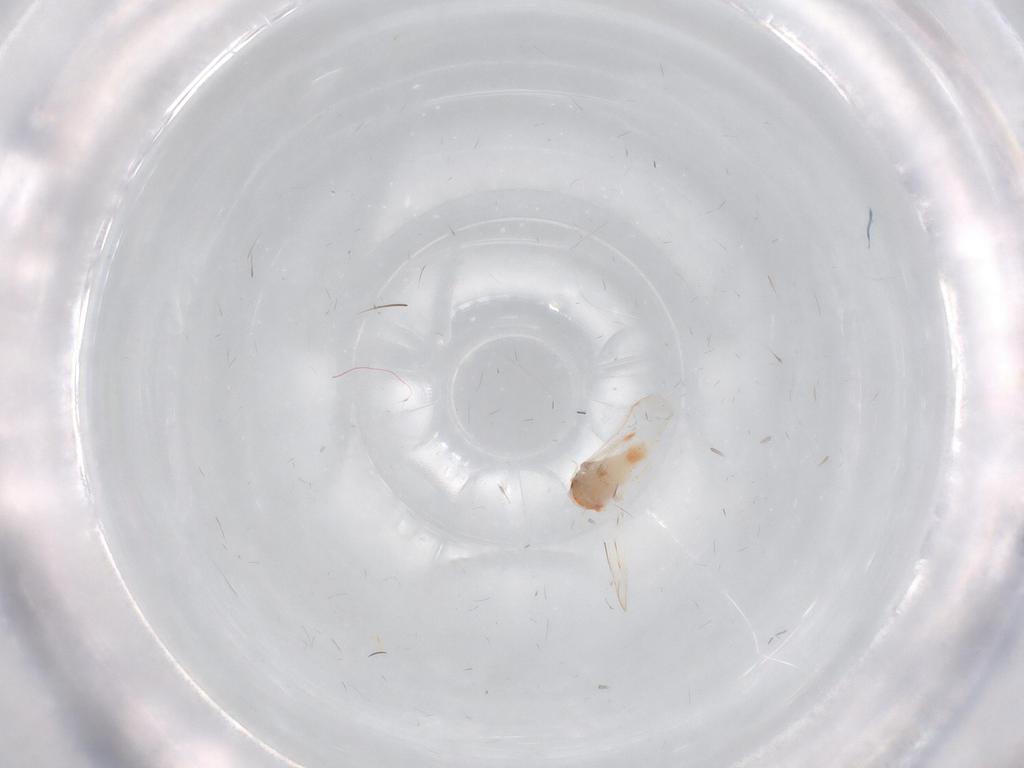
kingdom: Animalia
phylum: Arthropoda
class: Insecta
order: Hemiptera
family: Aleyrodidae
